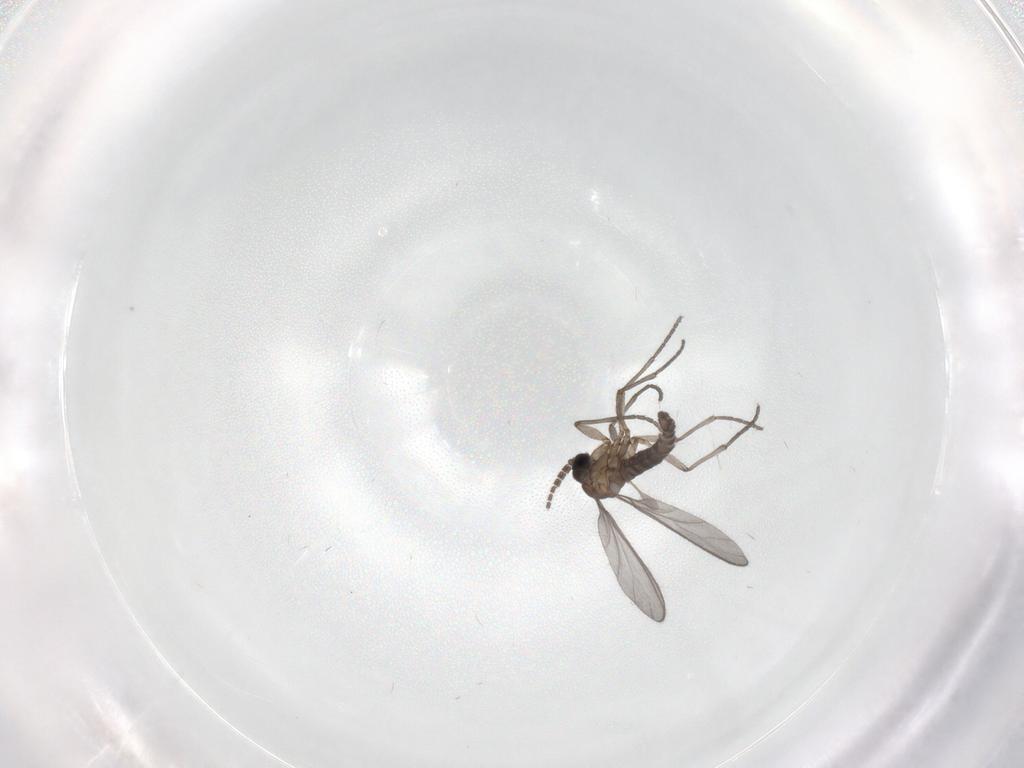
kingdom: Animalia
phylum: Arthropoda
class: Insecta
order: Diptera
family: Sciaridae
